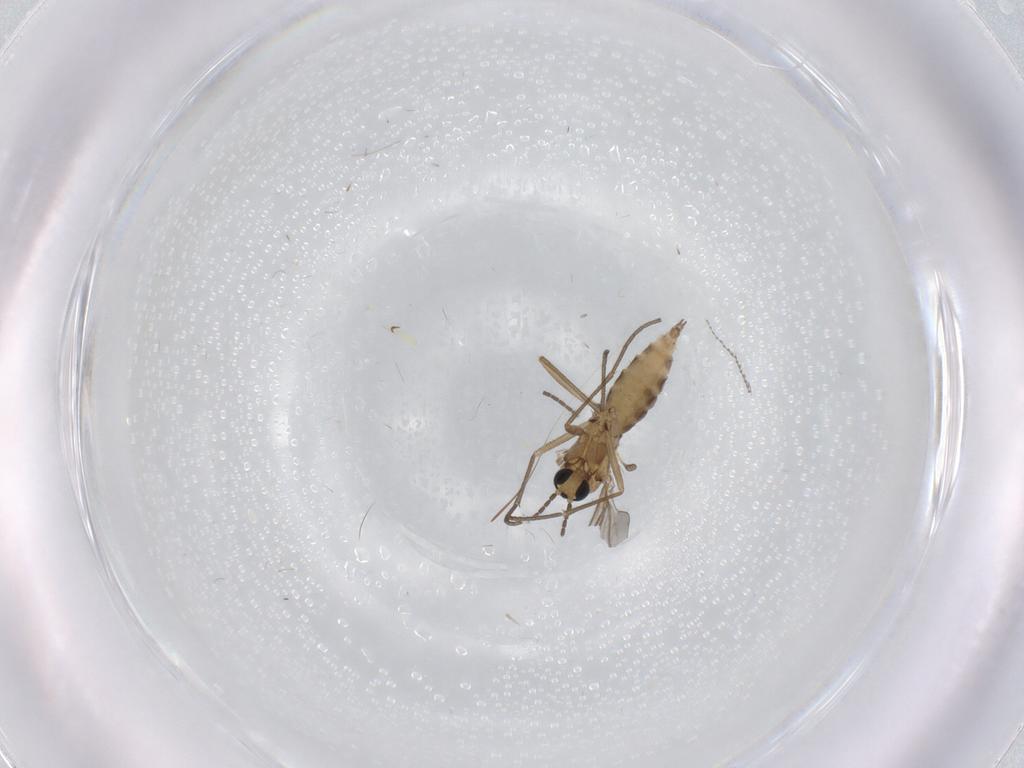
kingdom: Animalia
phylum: Arthropoda
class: Insecta
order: Diptera
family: Sciaridae
